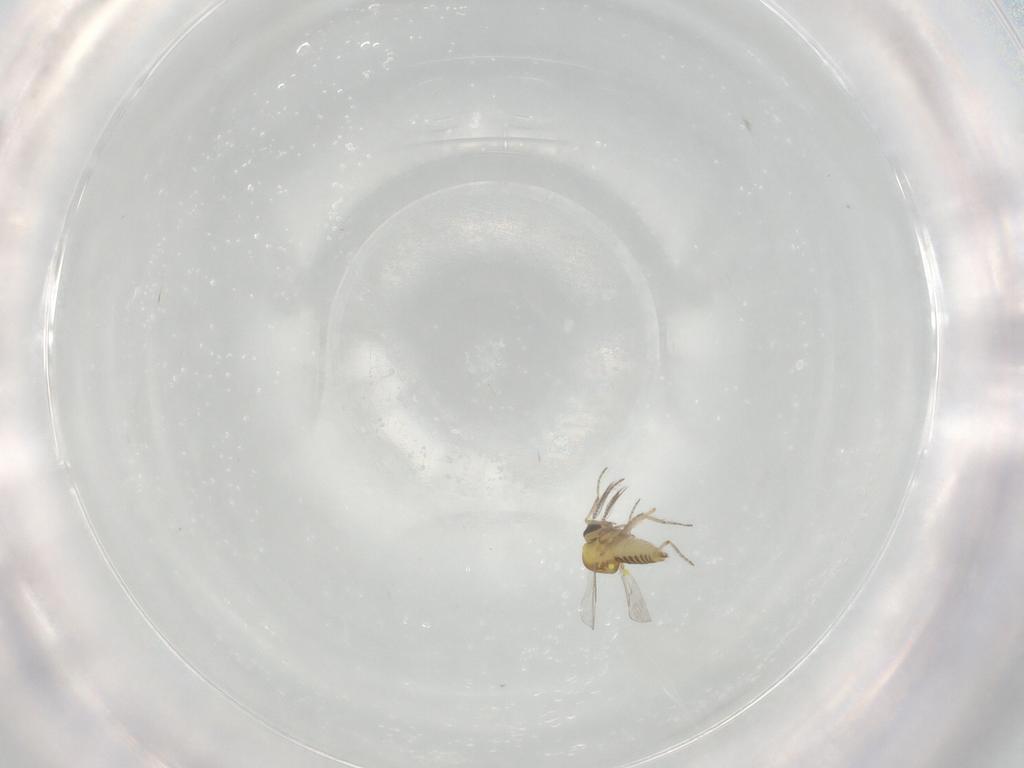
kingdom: Animalia
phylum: Arthropoda
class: Insecta
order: Diptera
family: Ceratopogonidae
